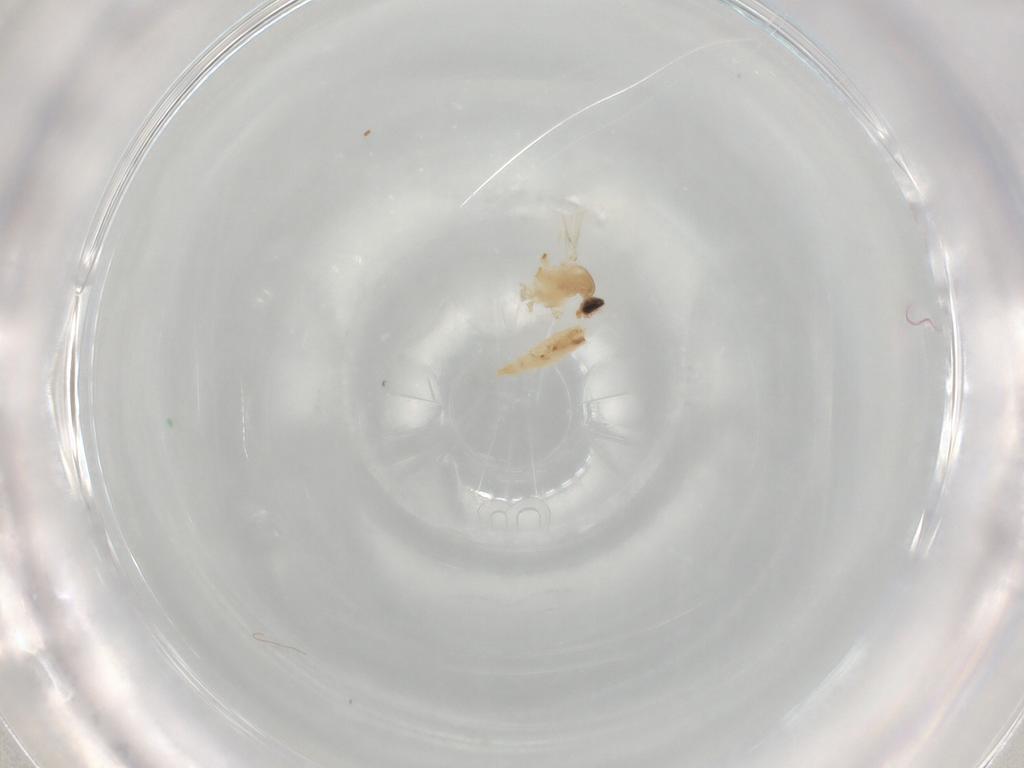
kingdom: Animalia
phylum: Arthropoda
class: Insecta
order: Diptera
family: Cecidomyiidae
